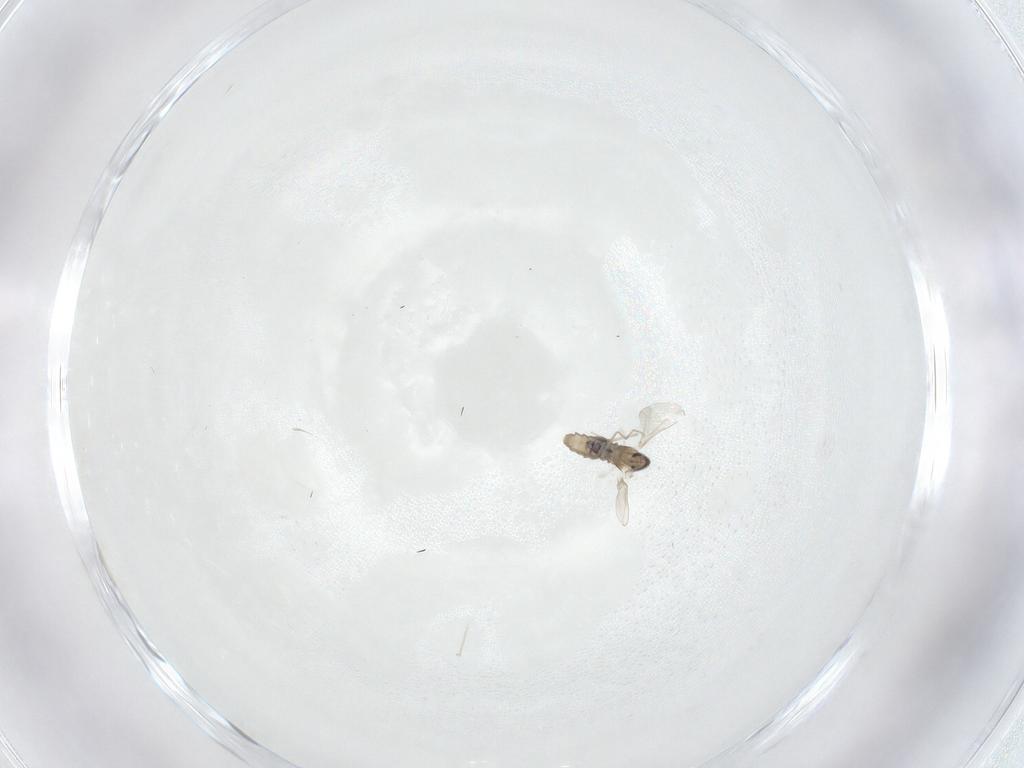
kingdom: Animalia
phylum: Arthropoda
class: Insecta
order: Diptera
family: Cecidomyiidae
